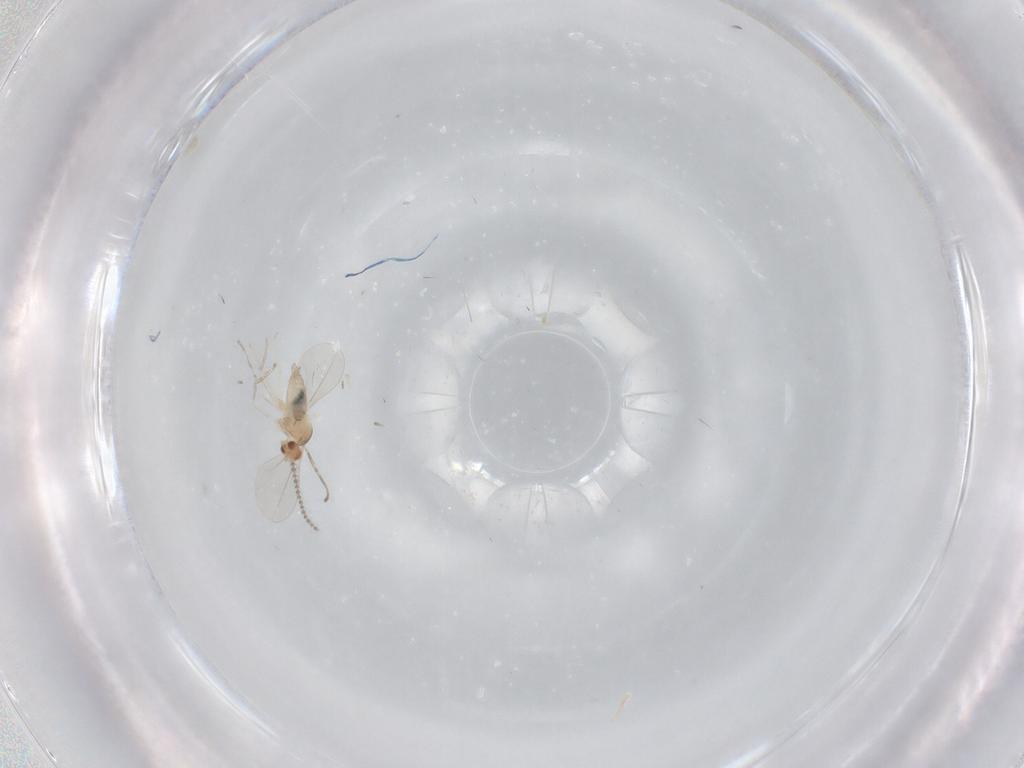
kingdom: Animalia
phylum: Arthropoda
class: Insecta
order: Diptera
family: Cecidomyiidae
